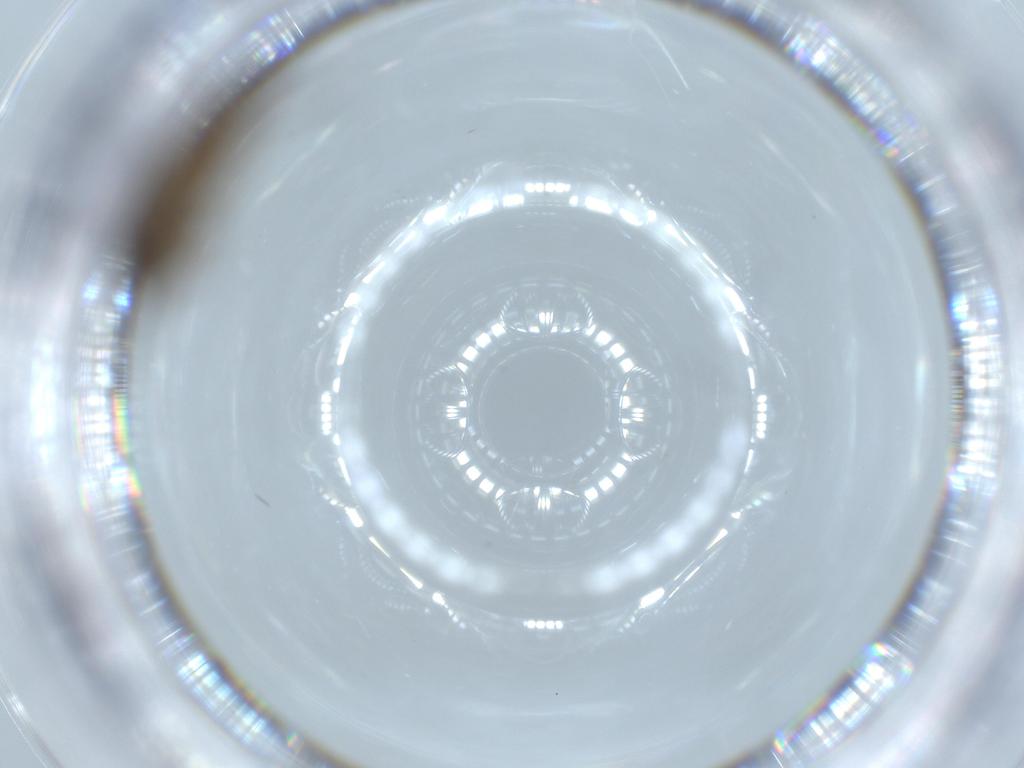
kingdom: Animalia
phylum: Arthropoda
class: Insecta
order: Diptera
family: Sciaridae
